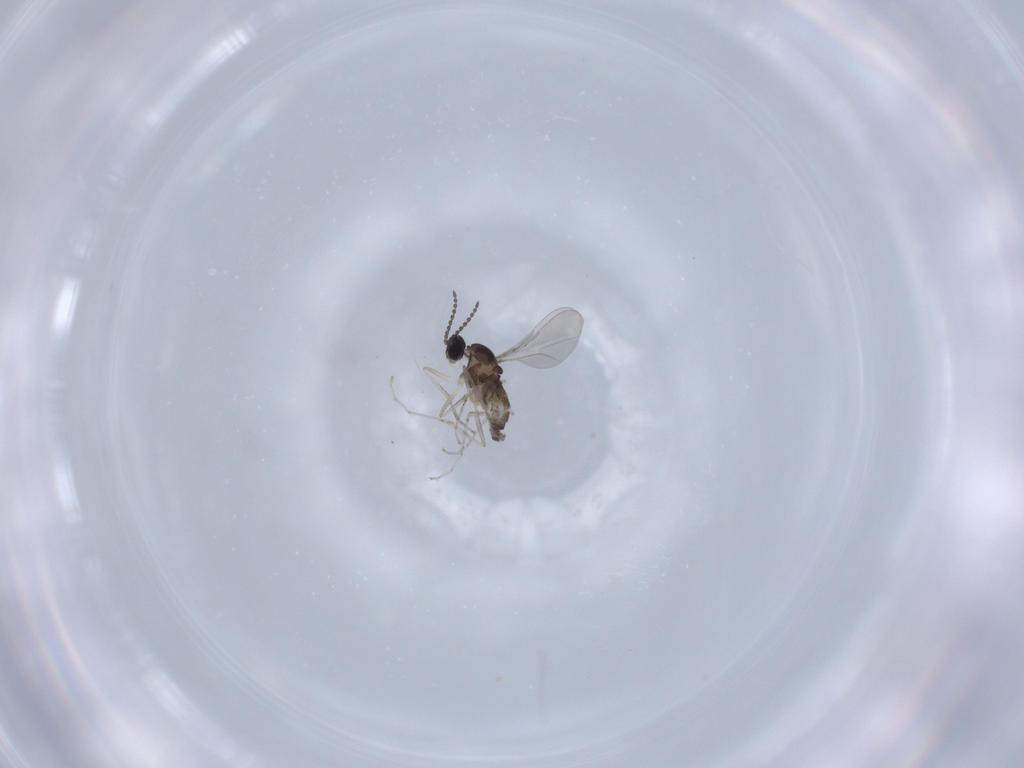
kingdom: Animalia
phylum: Arthropoda
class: Insecta
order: Diptera
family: Cecidomyiidae
